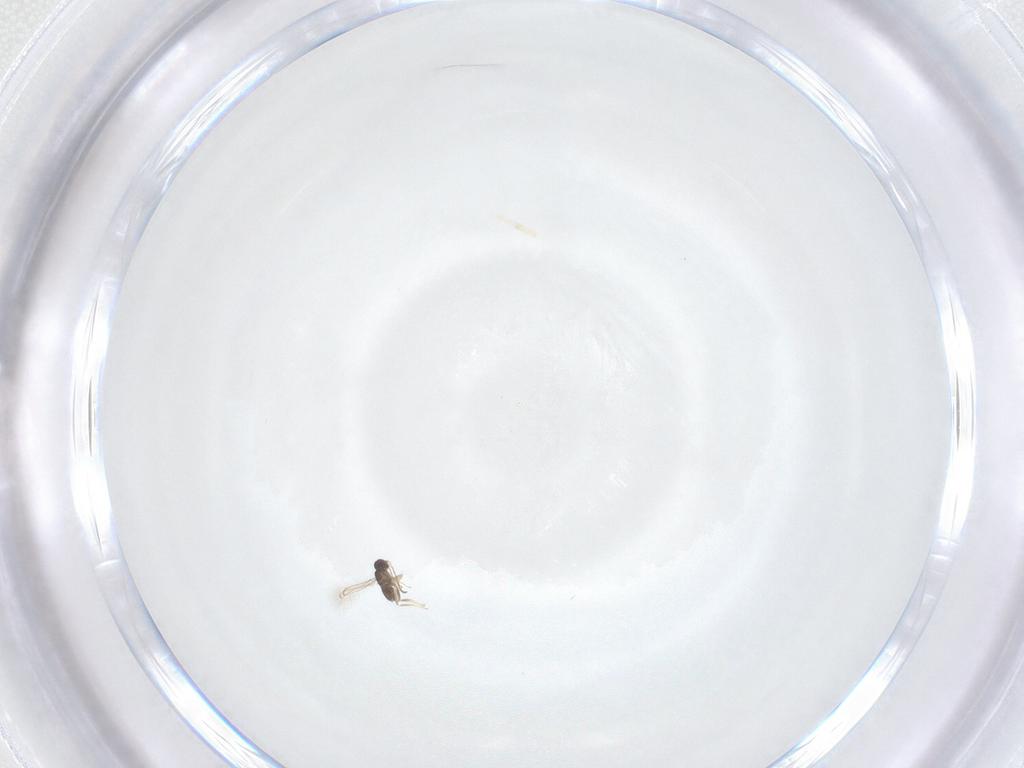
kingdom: Animalia
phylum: Arthropoda
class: Insecta
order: Hymenoptera
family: Mymaridae
